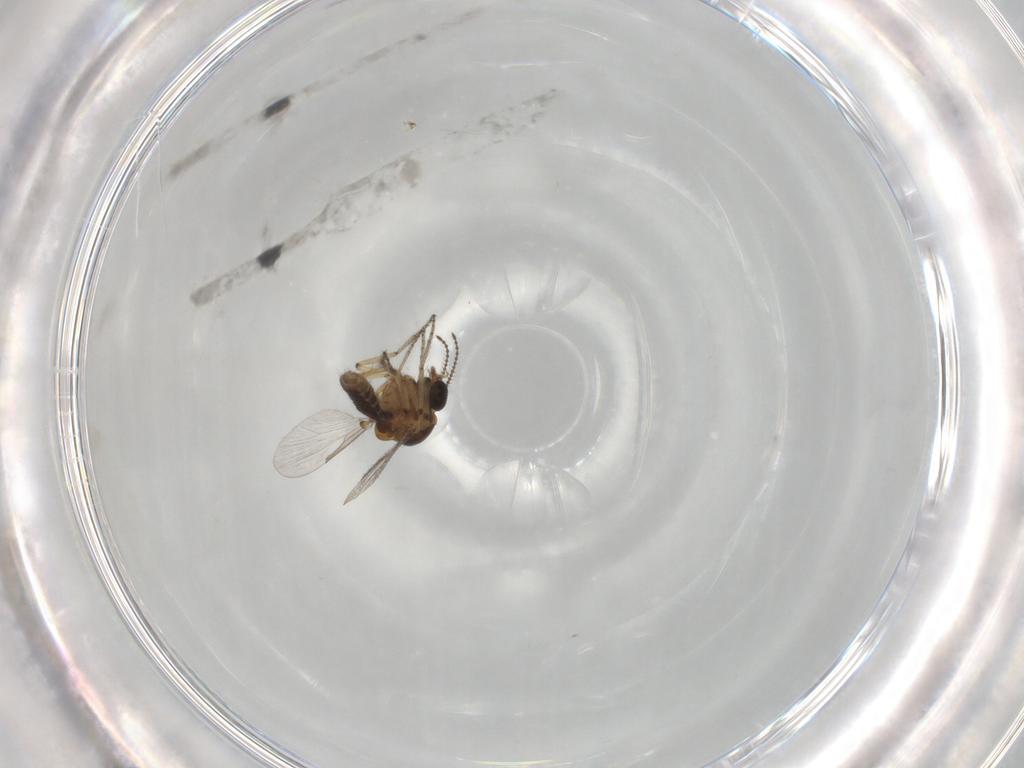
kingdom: Animalia
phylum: Arthropoda
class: Insecta
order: Diptera
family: Ceratopogonidae
